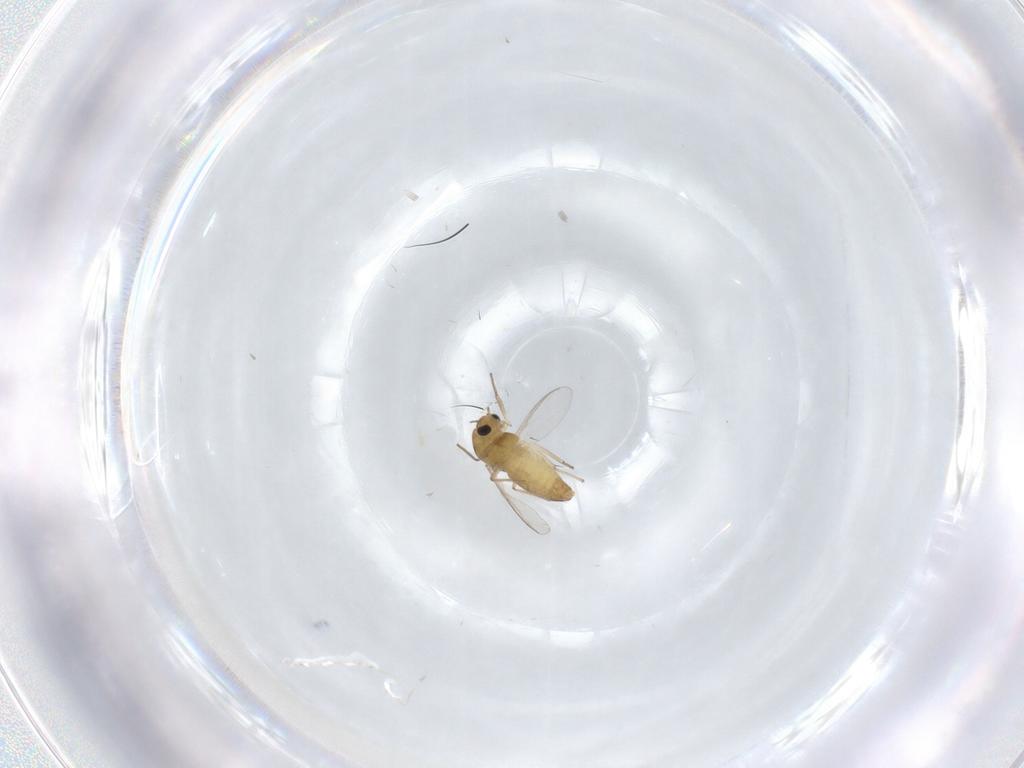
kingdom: Animalia
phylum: Arthropoda
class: Insecta
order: Diptera
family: Chironomidae
